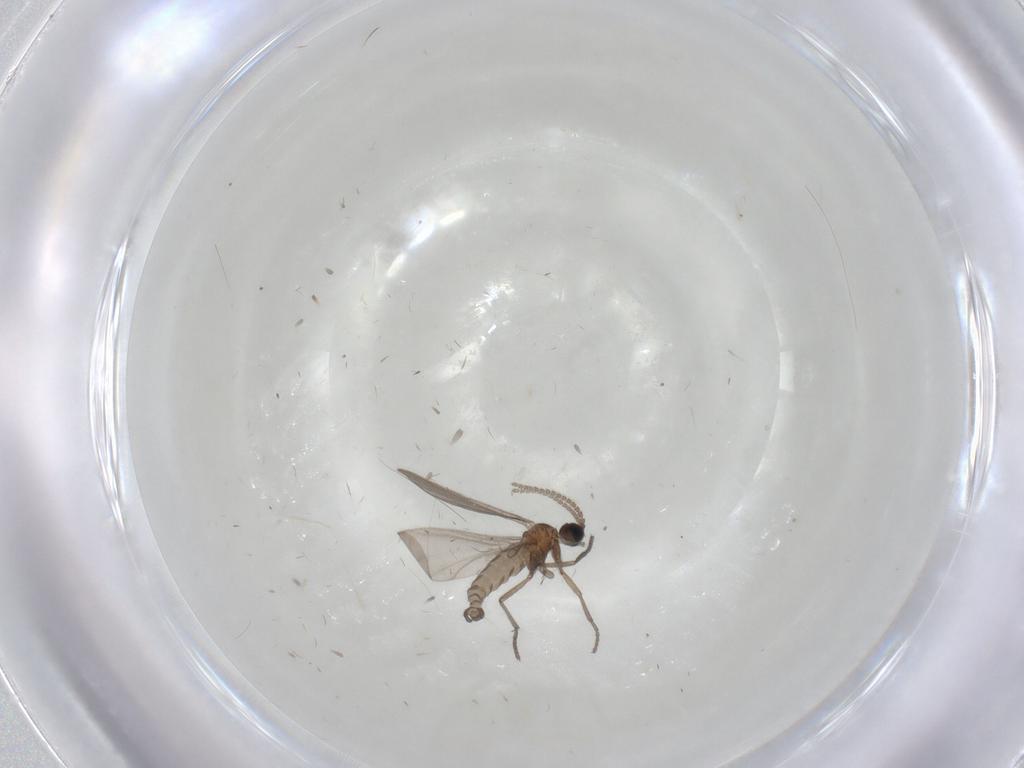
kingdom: Animalia
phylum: Arthropoda
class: Insecta
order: Diptera
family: Sciaridae
